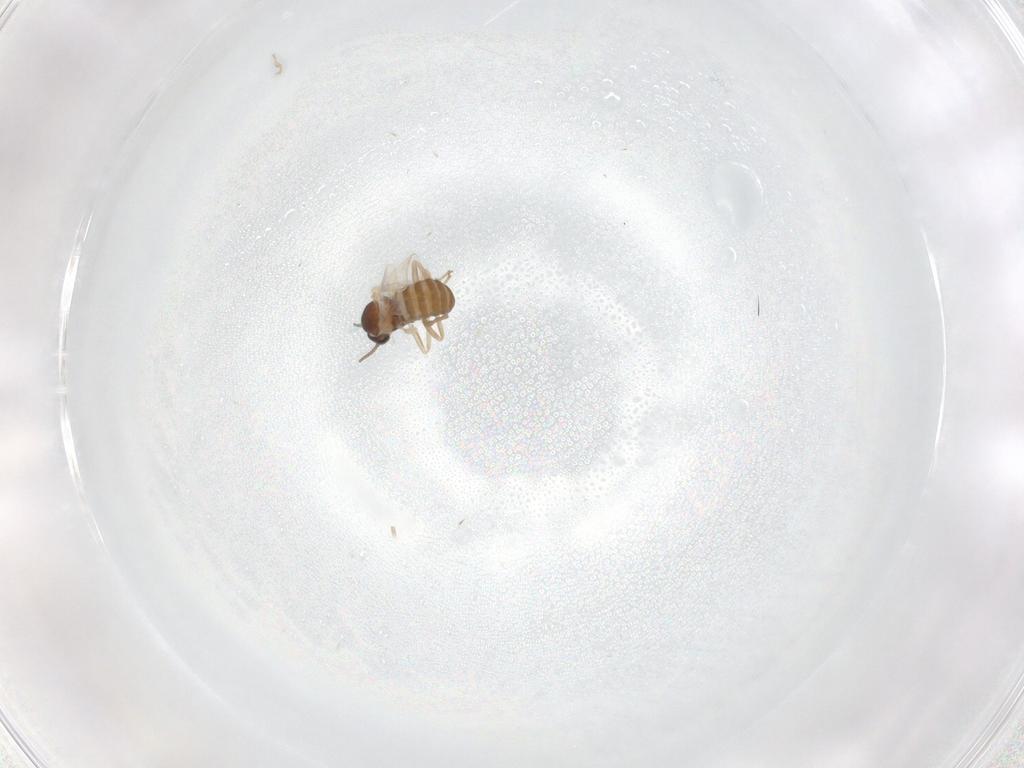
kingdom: Animalia
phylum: Arthropoda
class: Insecta
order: Diptera
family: Cecidomyiidae
